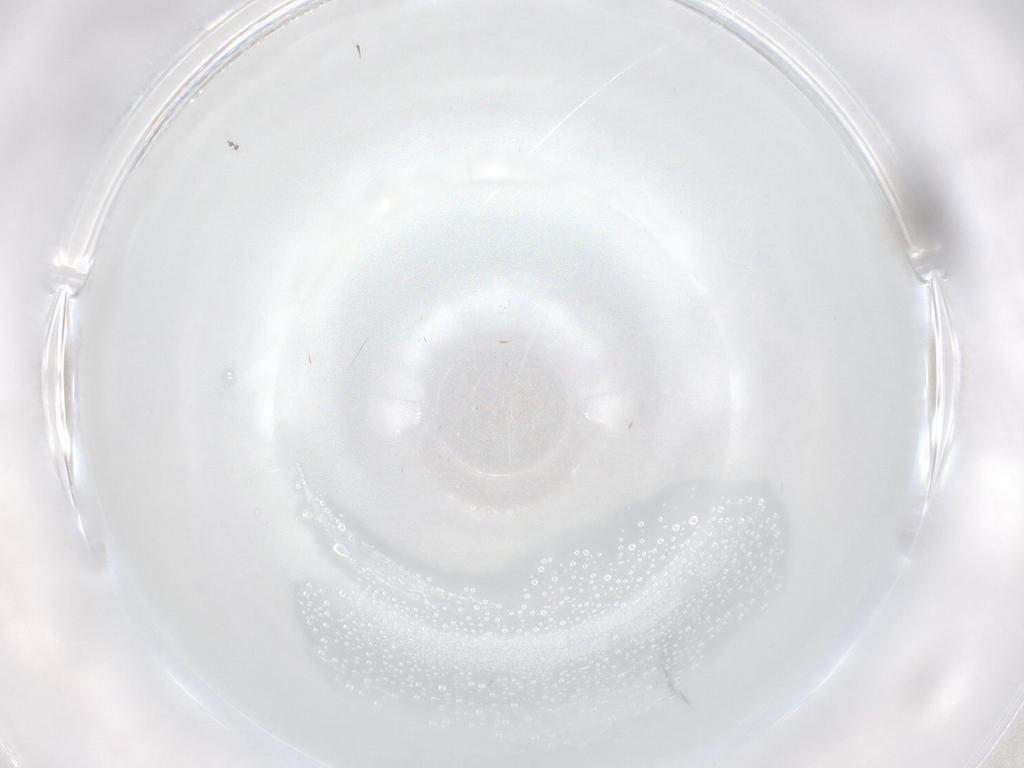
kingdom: Animalia
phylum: Arthropoda
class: Insecta
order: Diptera
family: Cecidomyiidae
